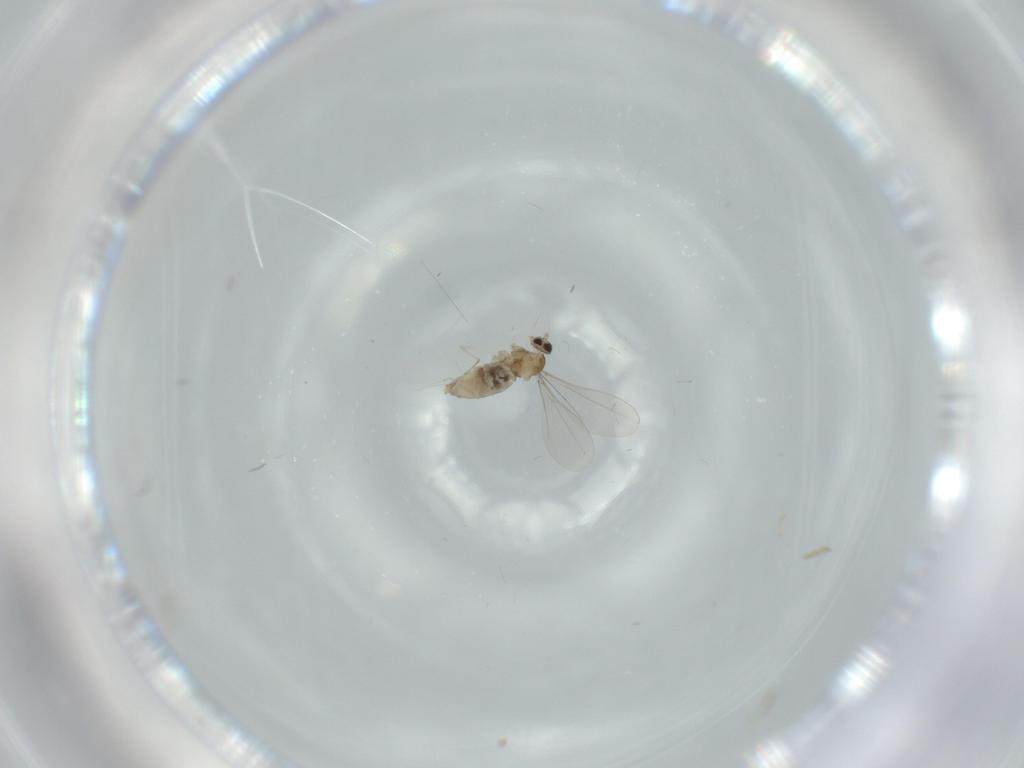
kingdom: Animalia
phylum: Arthropoda
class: Insecta
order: Diptera
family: Cecidomyiidae
